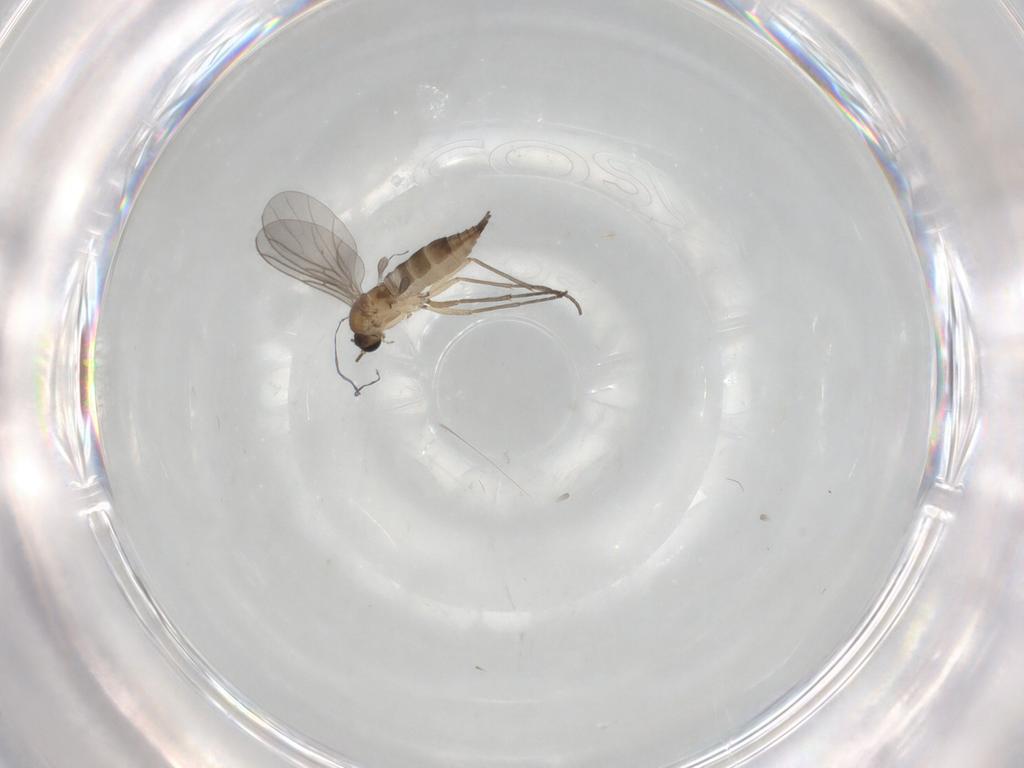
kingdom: Animalia
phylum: Arthropoda
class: Insecta
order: Diptera
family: Sciaridae
